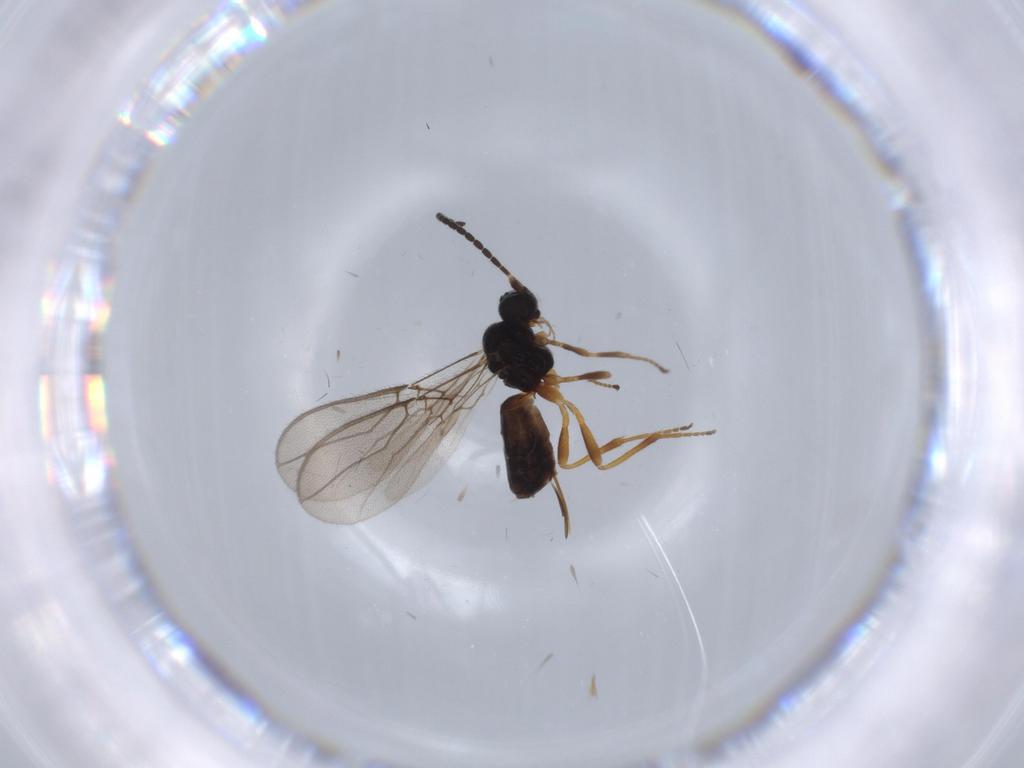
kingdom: Animalia
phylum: Arthropoda
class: Insecta
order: Hymenoptera
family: Braconidae
